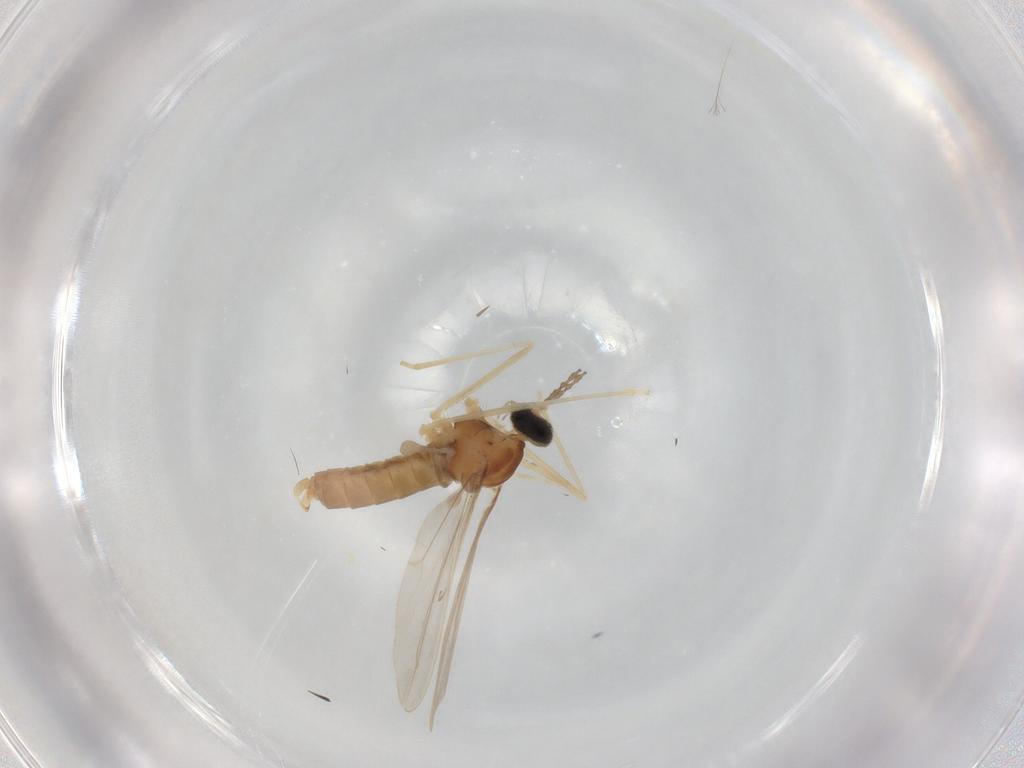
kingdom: Animalia
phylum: Arthropoda
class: Insecta
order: Diptera
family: Cecidomyiidae
